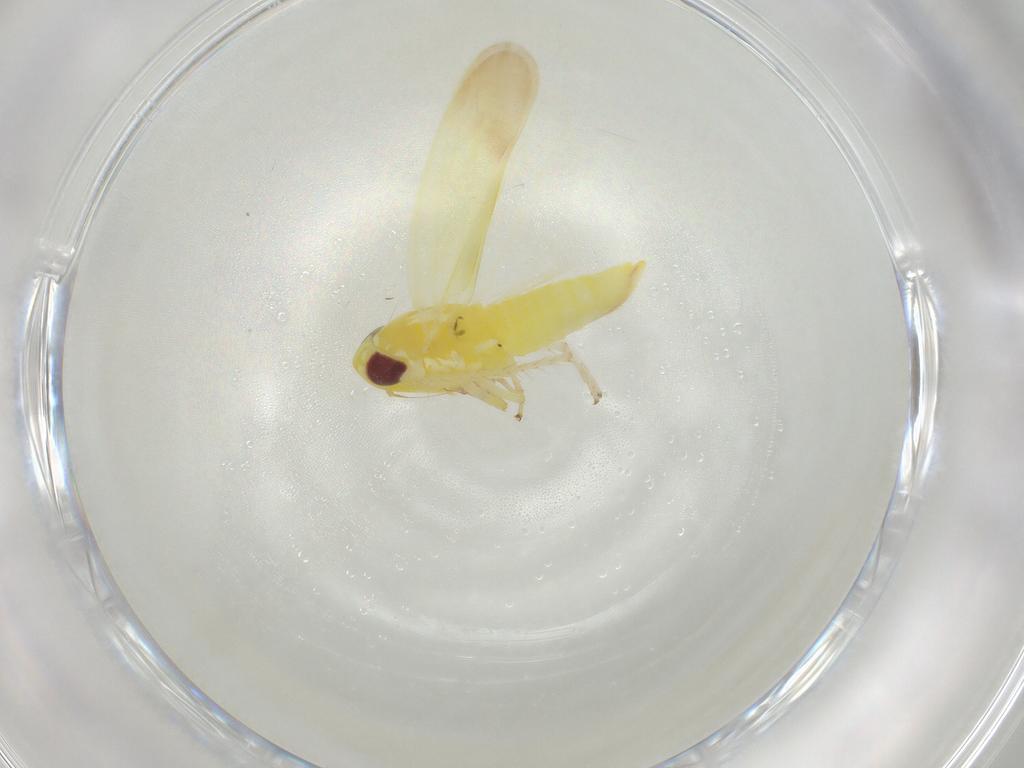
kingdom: Animalia
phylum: Arthropoda
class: Insecta
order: Hemiptera
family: Cicadellidae
